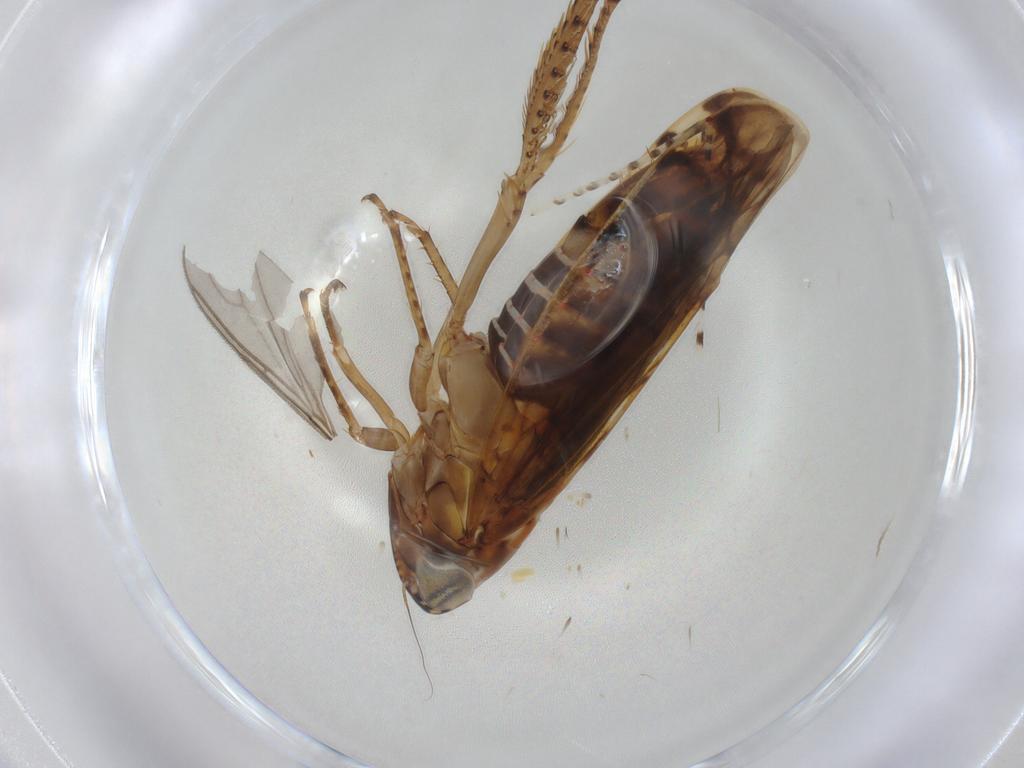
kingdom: Animalia
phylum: Arthropoda
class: Insecta
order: Hemiptera
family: Cicadellidae
